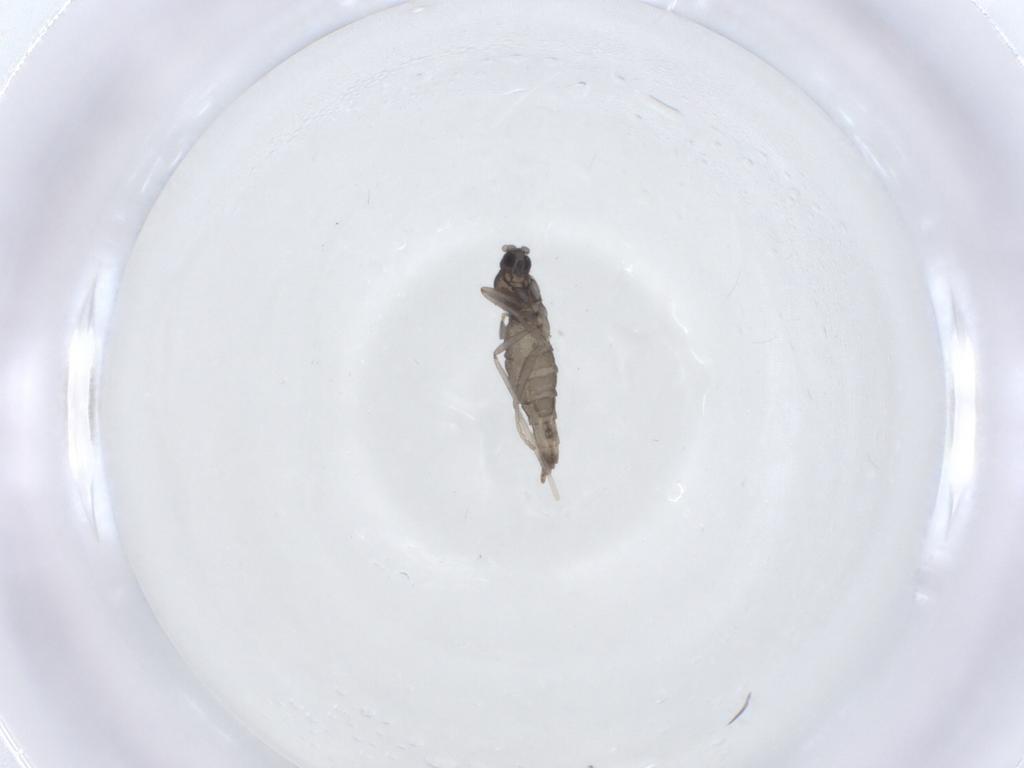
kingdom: Animalia
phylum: Arthropoda
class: Insecta
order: Diptera
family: Cecidomyiidae
